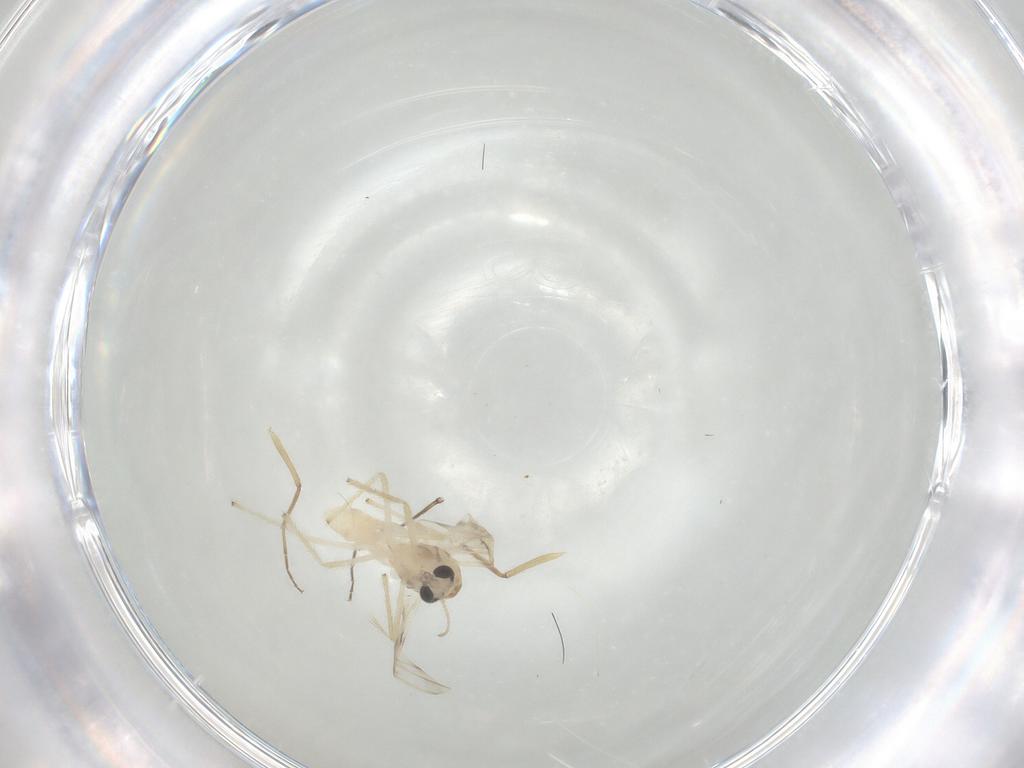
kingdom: Animalia
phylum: Arthropoda
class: Insecta
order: Diptera
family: Chironomidae
